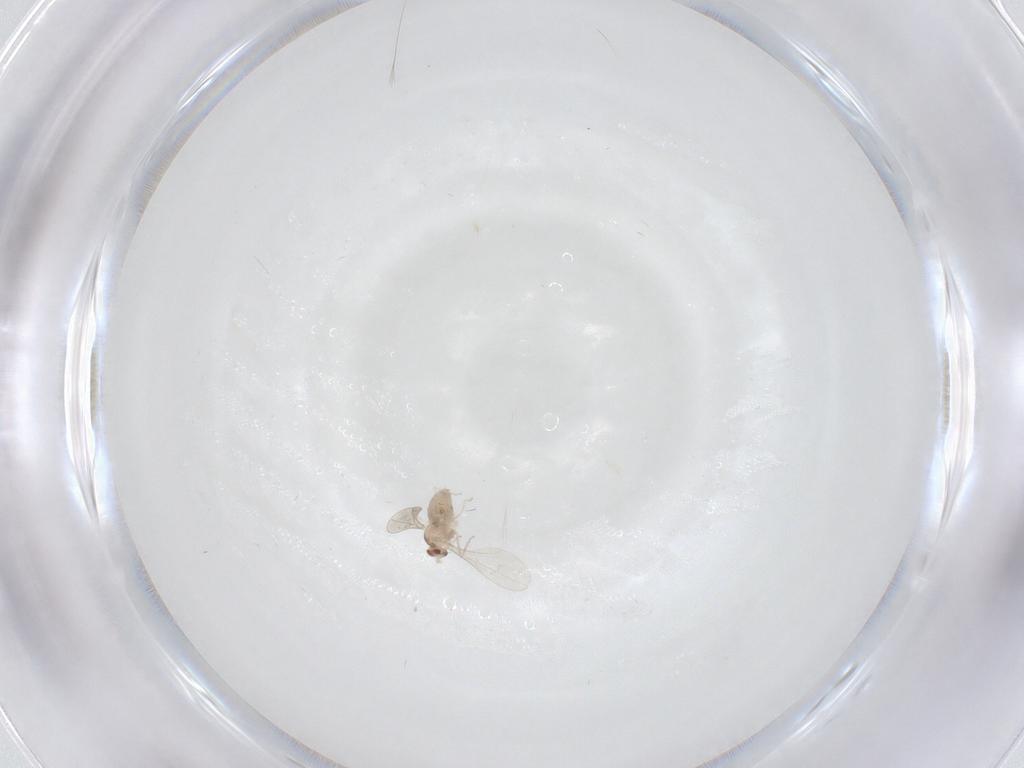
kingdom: Animalia
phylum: Arthropoda
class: Insecta
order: Diptera
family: Cecidomyiidae
